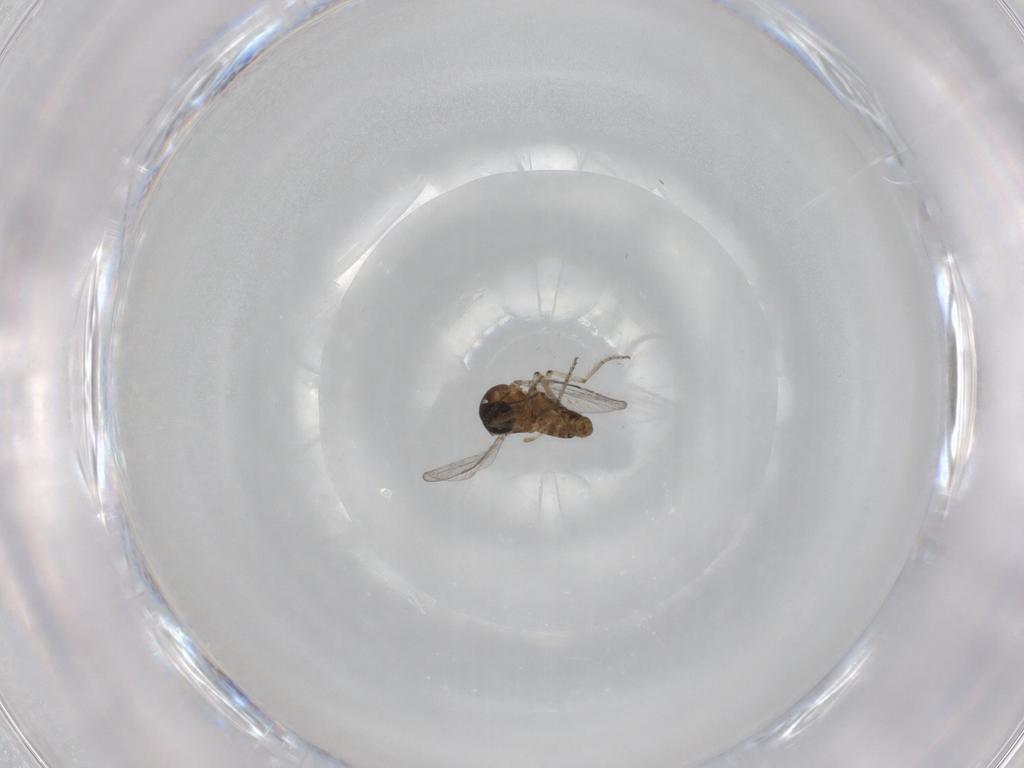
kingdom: Animalia
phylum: Arthropoda
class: Insecta
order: Diptera
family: Ceratopogonidae
